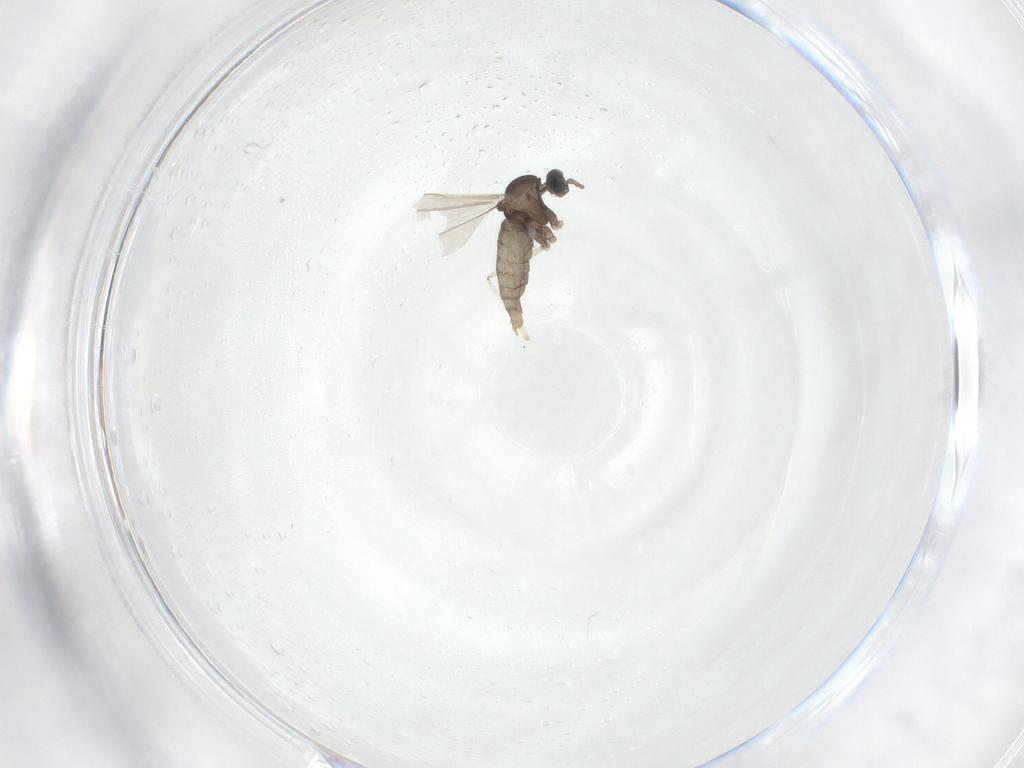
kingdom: Animalia
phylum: Arthropoda
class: Insecta
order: Diptera
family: Cecidomyiidae
